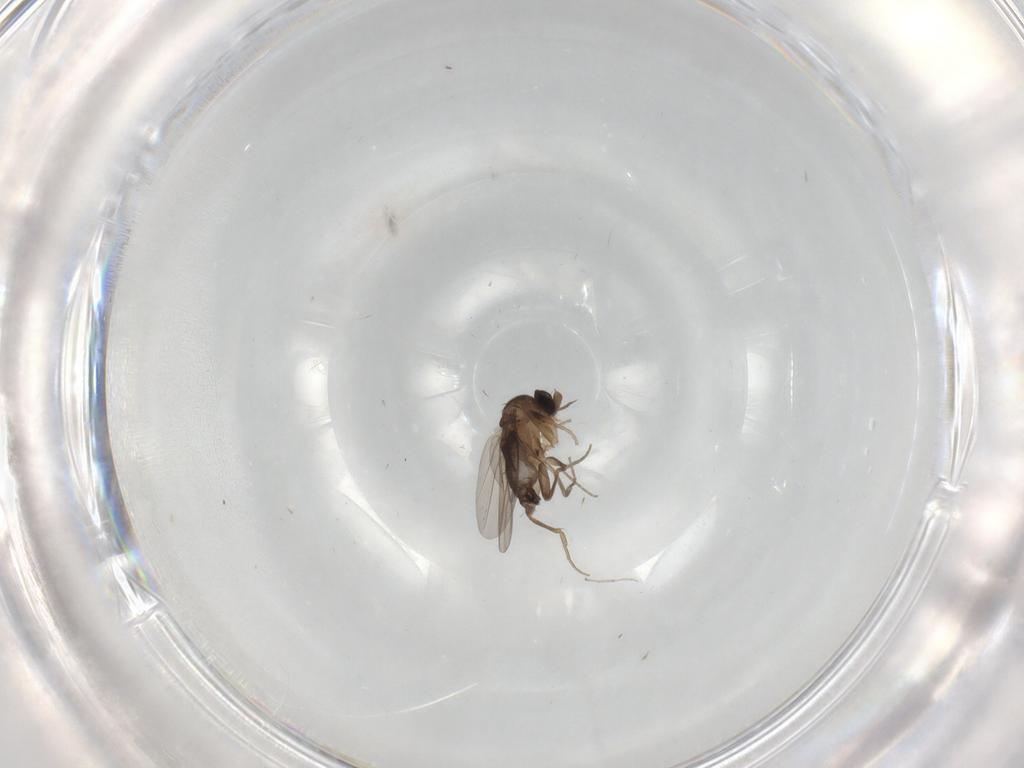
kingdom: Animalia
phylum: Arthropoda
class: Insecta
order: Diptera
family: Phoridae
